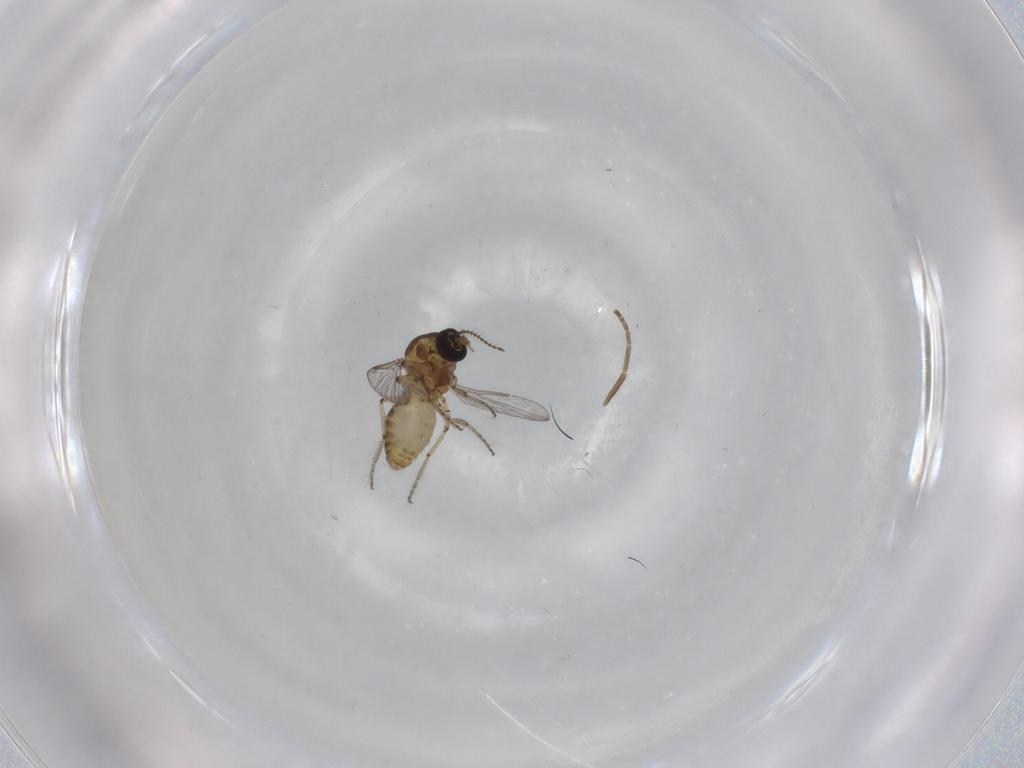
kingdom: Animalia
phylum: Arthropoda
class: Insecta
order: Diptera
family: Ceratopogonidae
